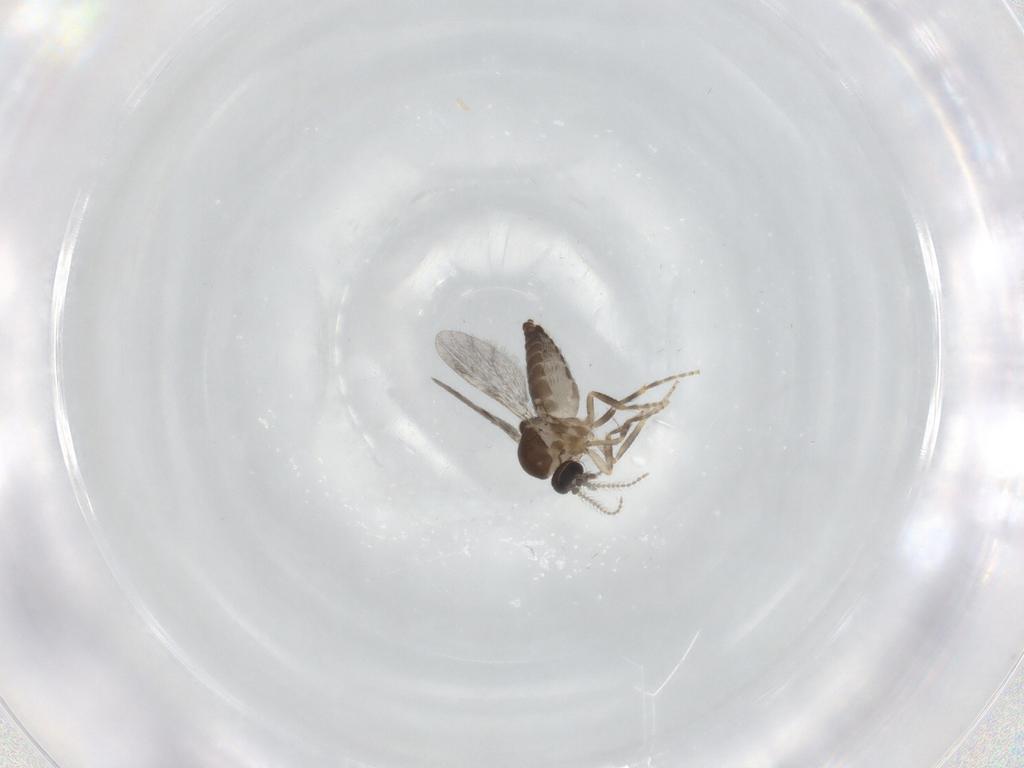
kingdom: Animalia
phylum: Arthropoda
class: Insecta
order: Diptera
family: Ceratopogonidae
